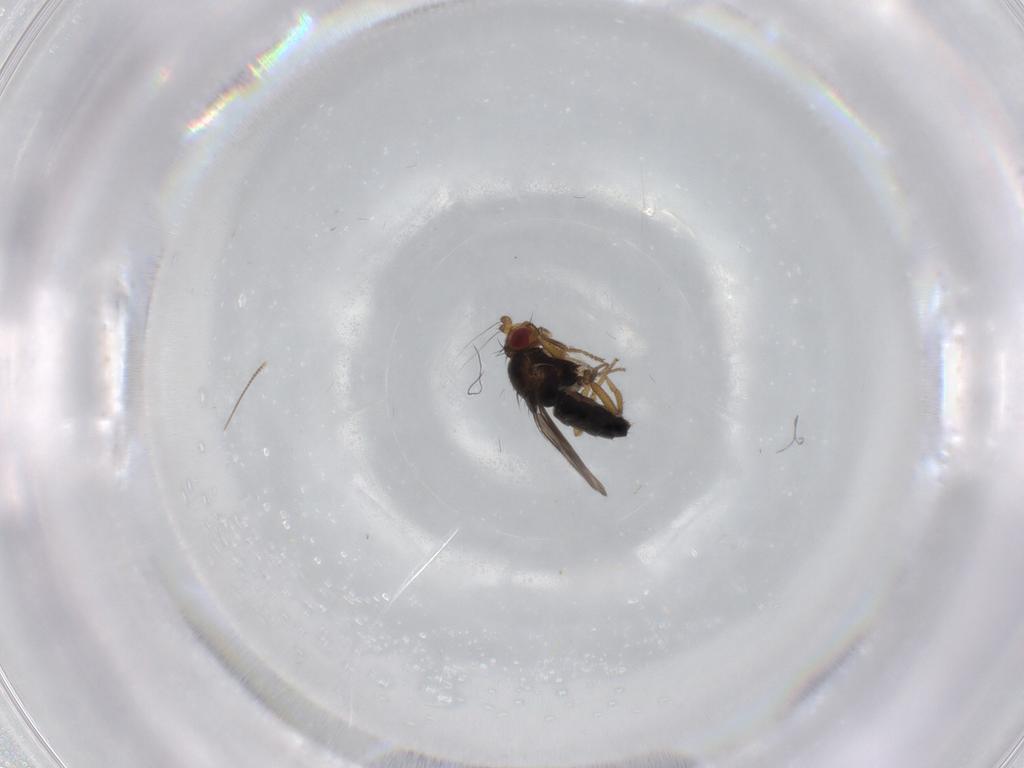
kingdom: Animalia
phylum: Arthropoda
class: Insecta
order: Diptera
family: Sphaeroceridae
